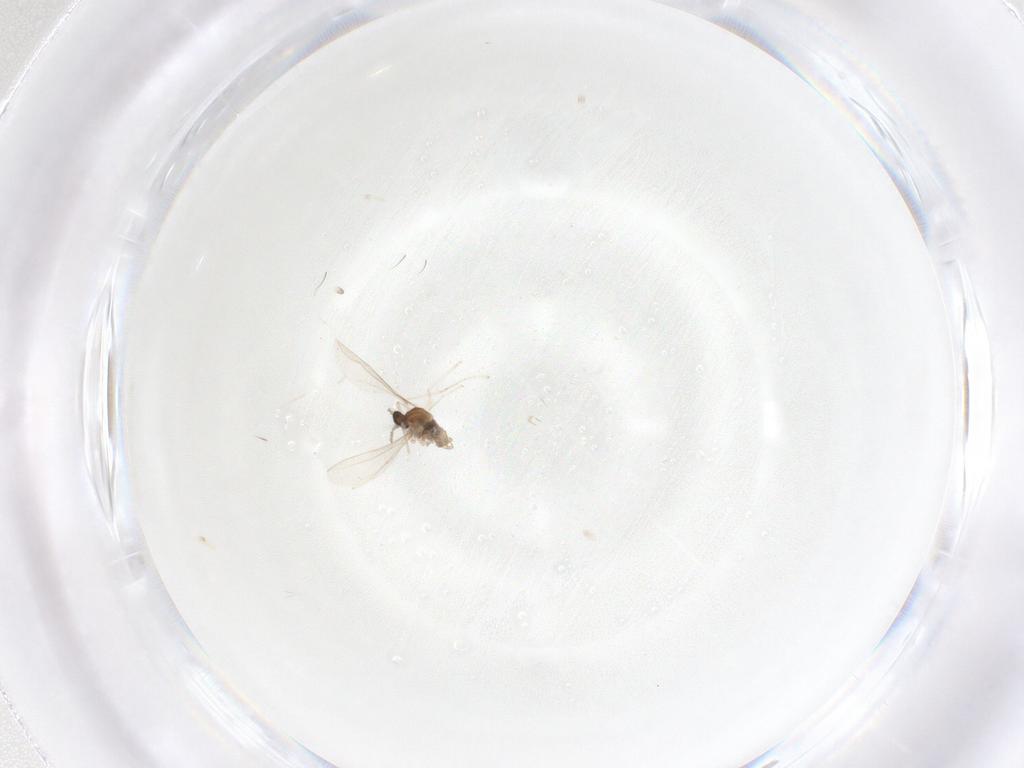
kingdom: Animalia
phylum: Arthropoda
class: Insecta
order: Diptera
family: Cecidomyiidae
